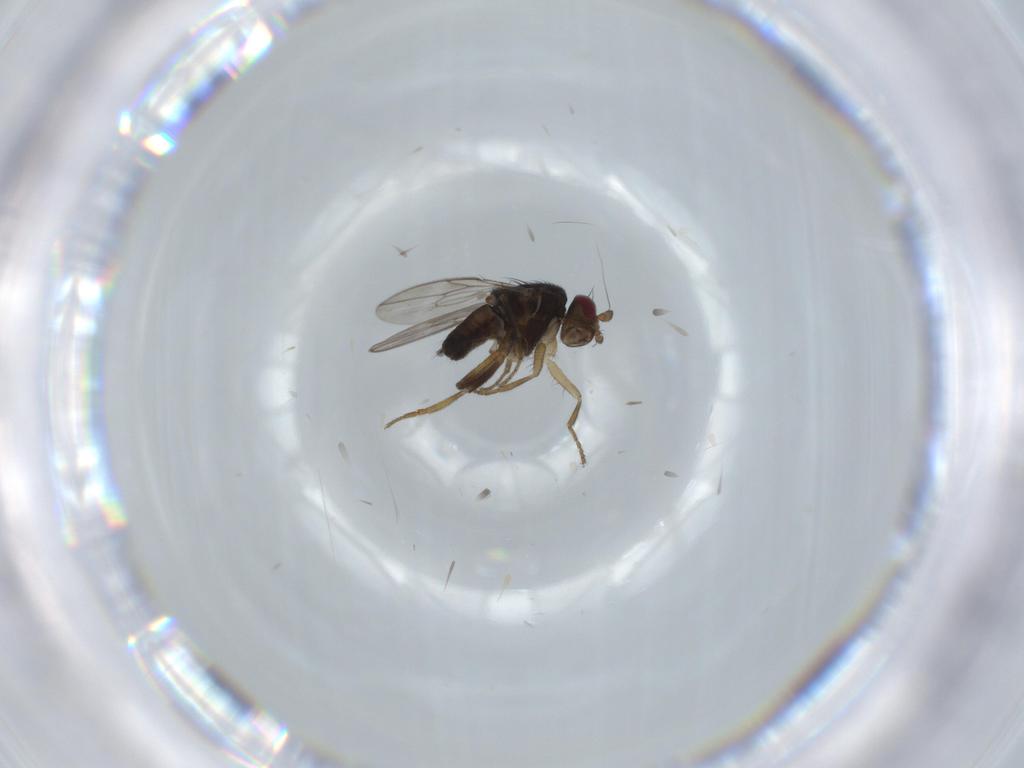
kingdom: Animalia
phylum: Arthropoda
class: Insecta
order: Diptera
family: Sphaeroceridae
